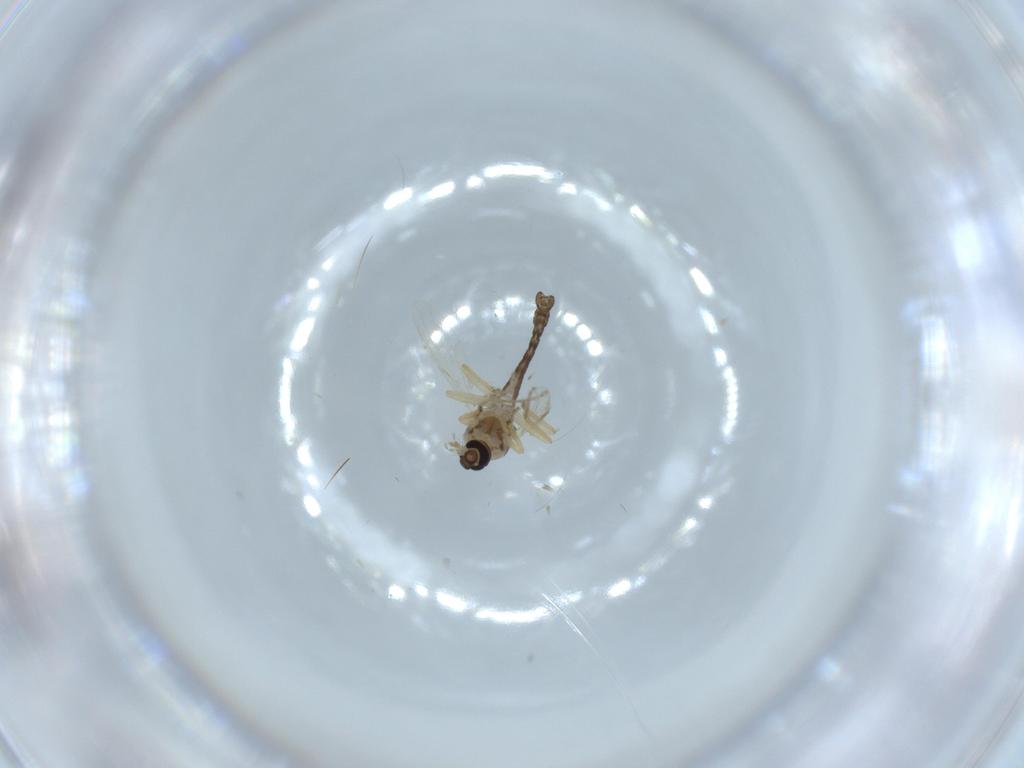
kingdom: Animalia
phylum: Arthropoda
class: Insecta
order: Diptera
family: Ceratopogonidae
